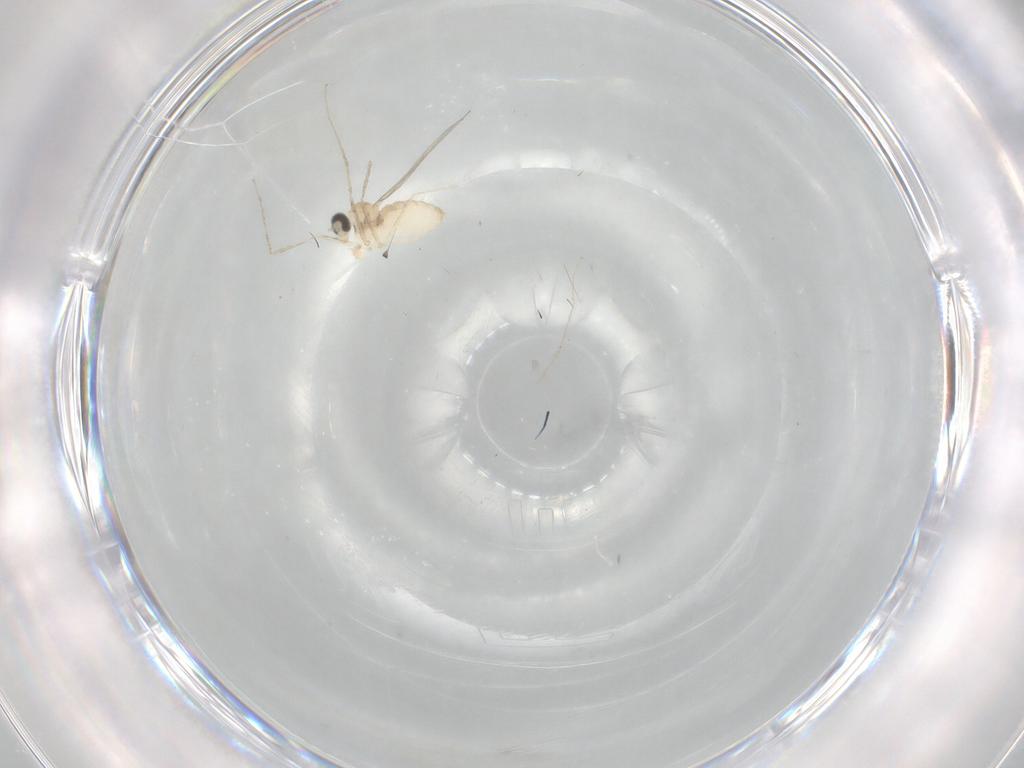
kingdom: Animalia
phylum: Arthropoda
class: Insecta
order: Diptera
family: Cecidomyiidae
